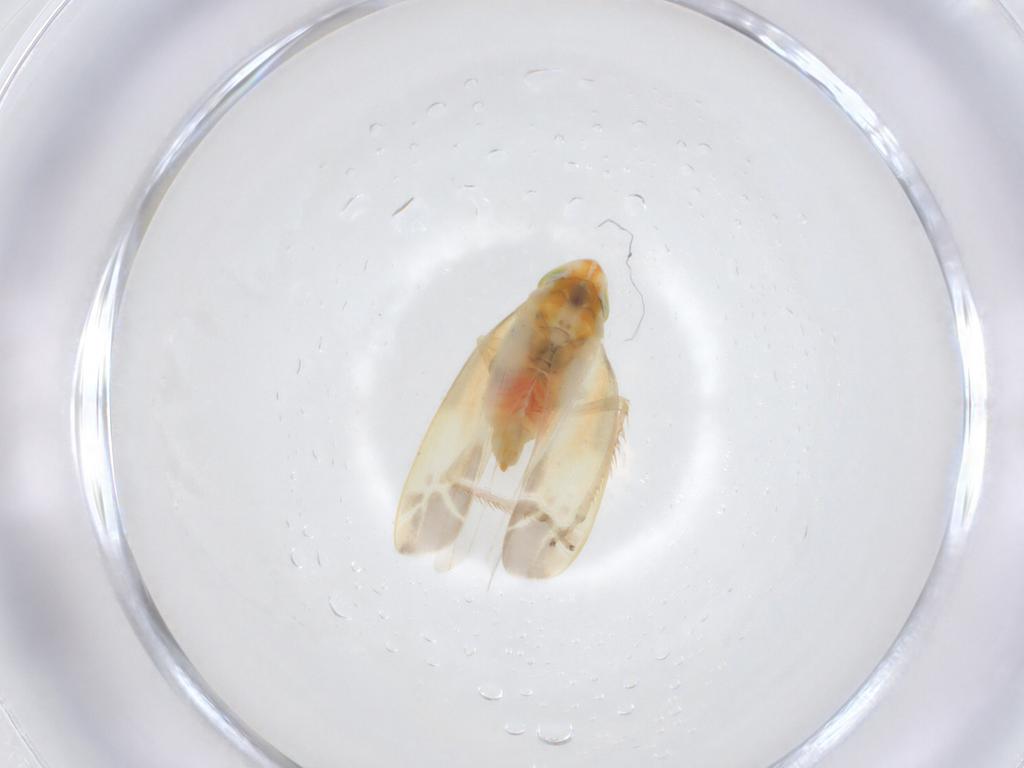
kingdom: Animalia
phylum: Arthropoda
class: Insecta
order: Hemiptera
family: Cicadellidae
